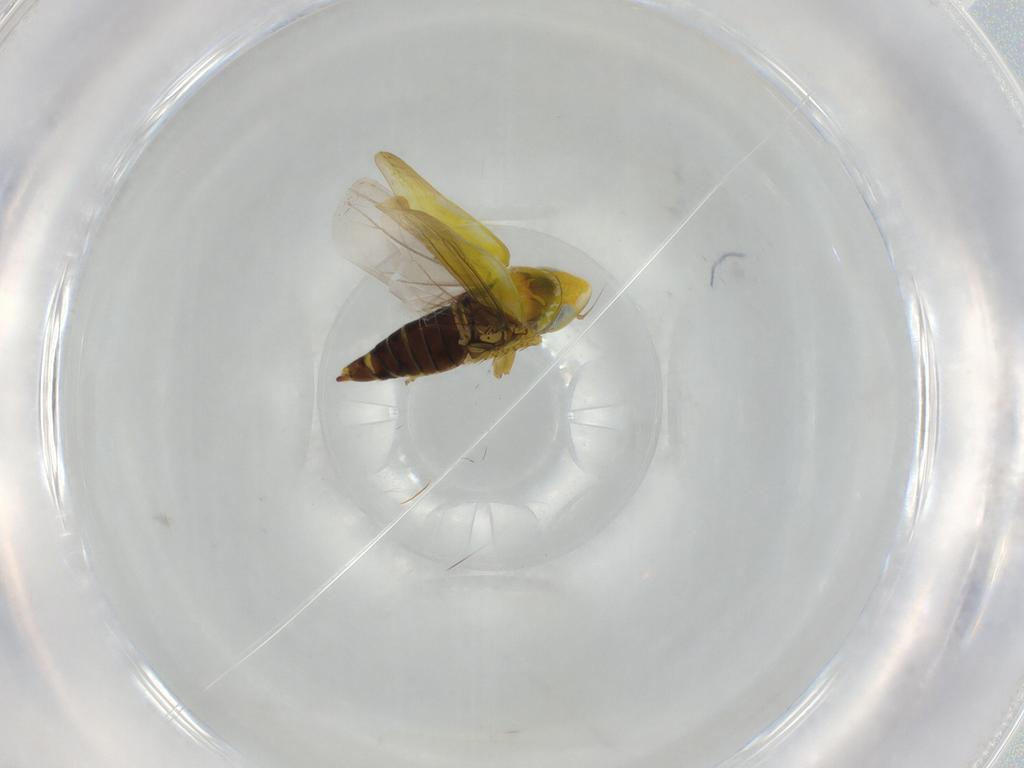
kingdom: Animalia
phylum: Arthropoda
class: Insecta
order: Hemiptera
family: Cicadellidae
